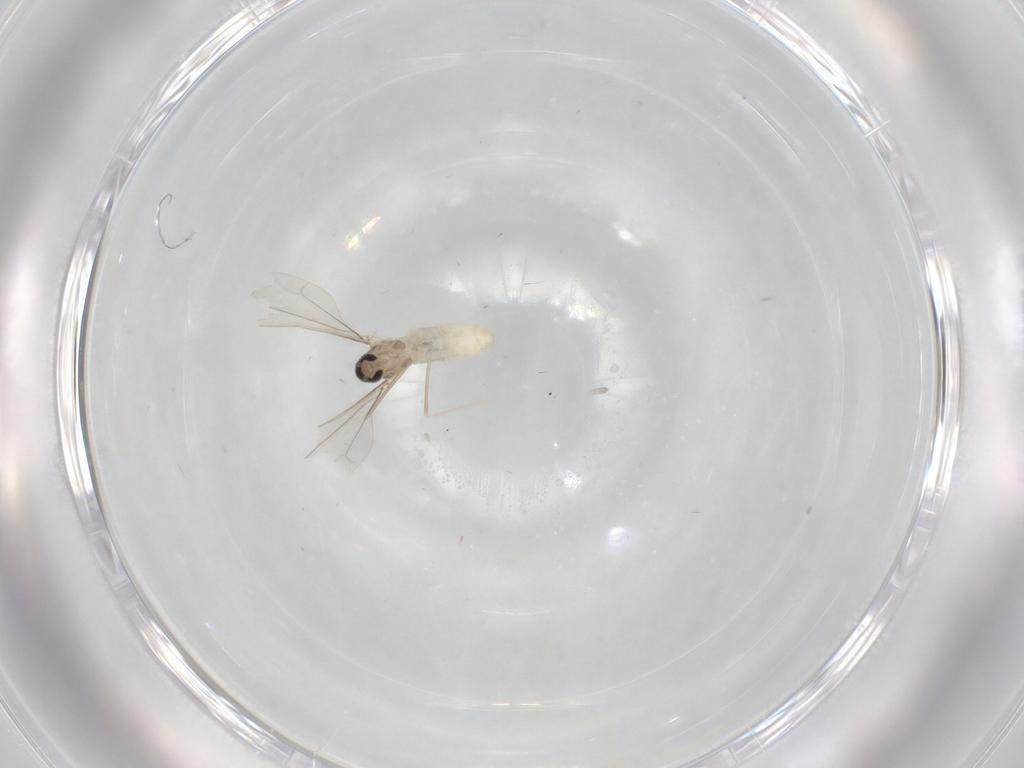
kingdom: Animalia
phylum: Arthropoda
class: Insecta
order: Diptera
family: Cecidomyiidae
